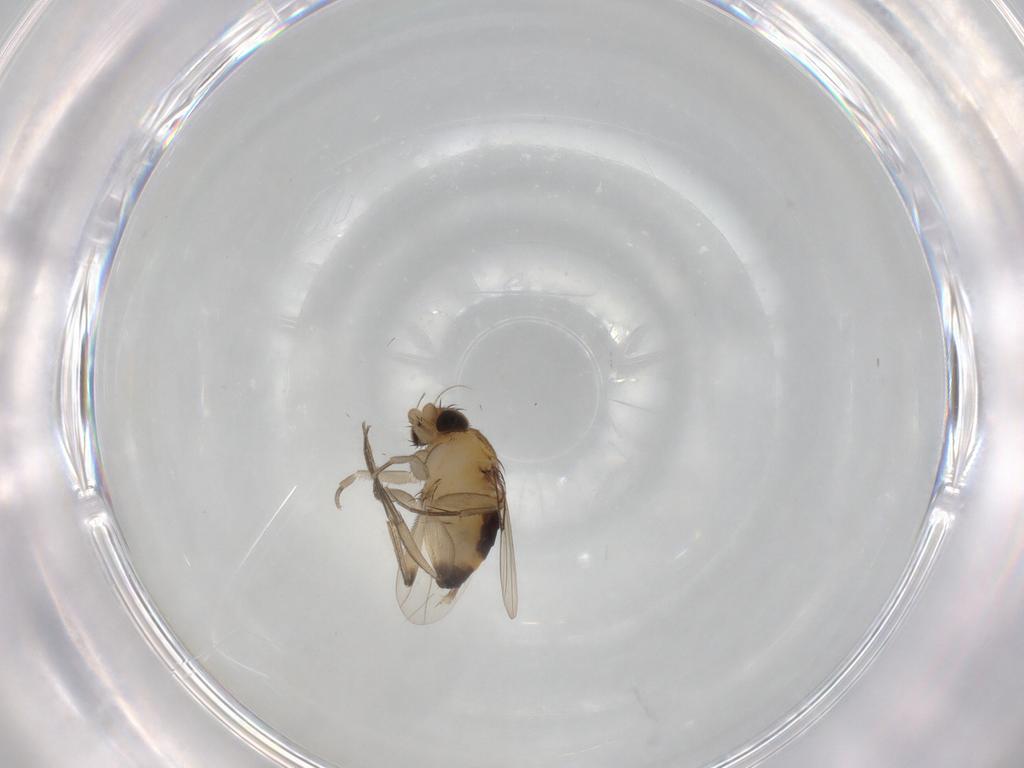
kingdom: Animalia
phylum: Arthropoda
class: Insecta
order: Diptera
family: Phoridae
